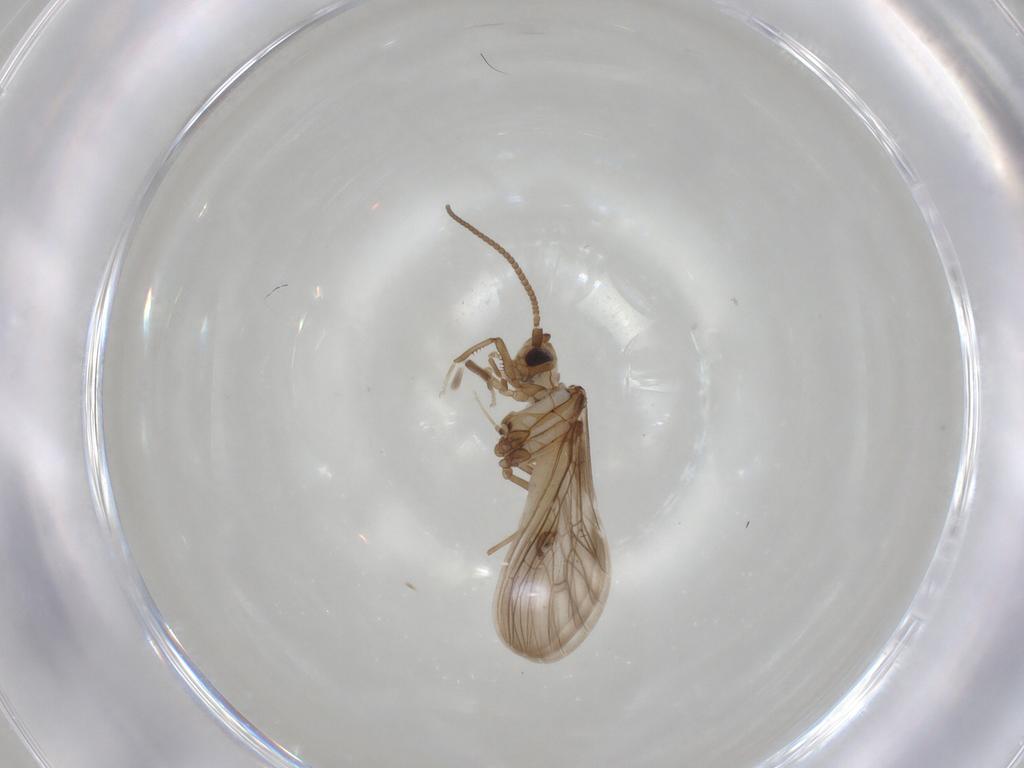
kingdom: Animalia
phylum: Arthropoda
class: Insecta
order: Neuroptera
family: Coniopterygidae
